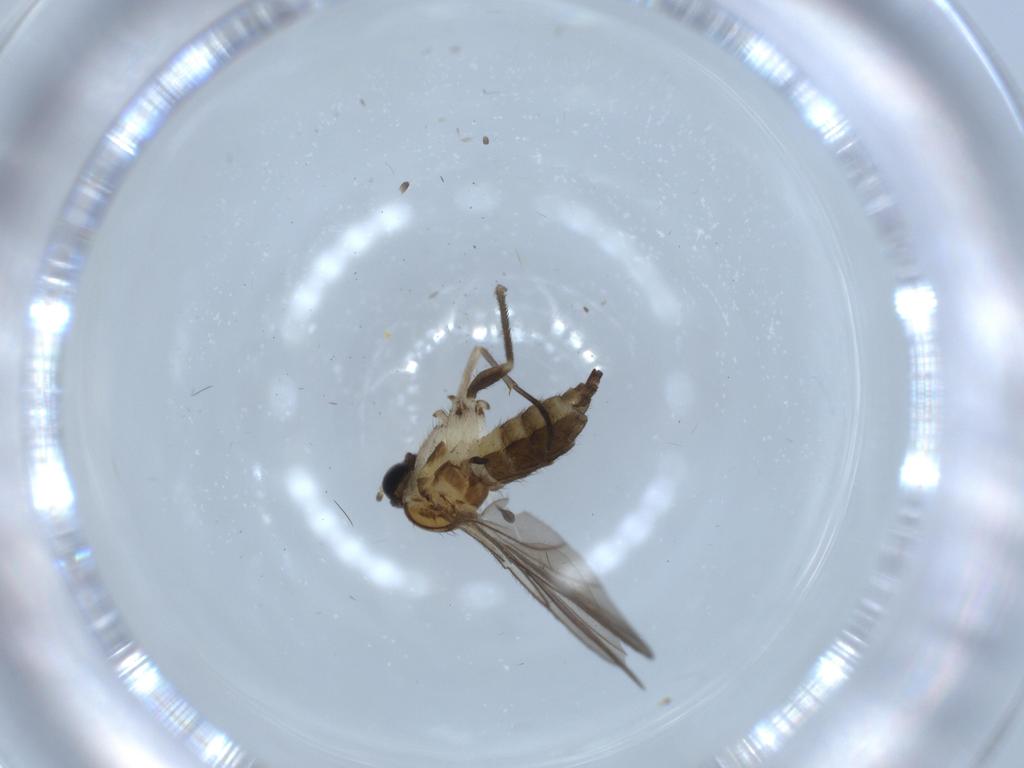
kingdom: Animalia
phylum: Arthropoda
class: Insecta
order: Diptera
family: Sciaridae
